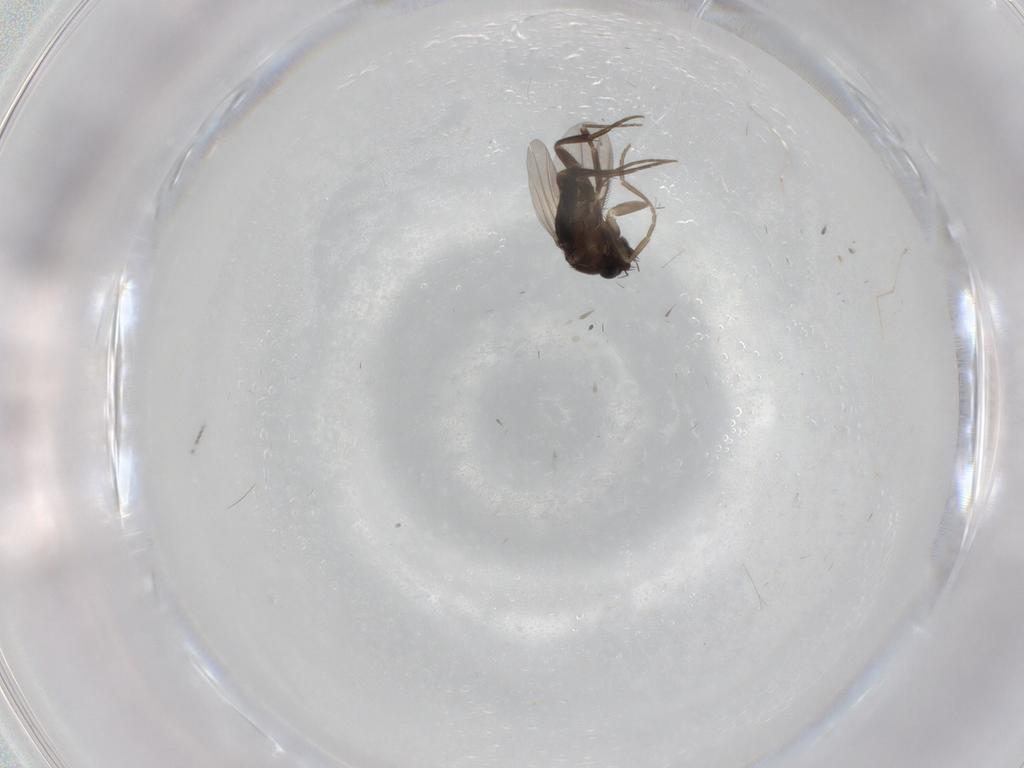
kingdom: Animalia
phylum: Arthropoda
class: Insecta
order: Diptera
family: Phoridae
